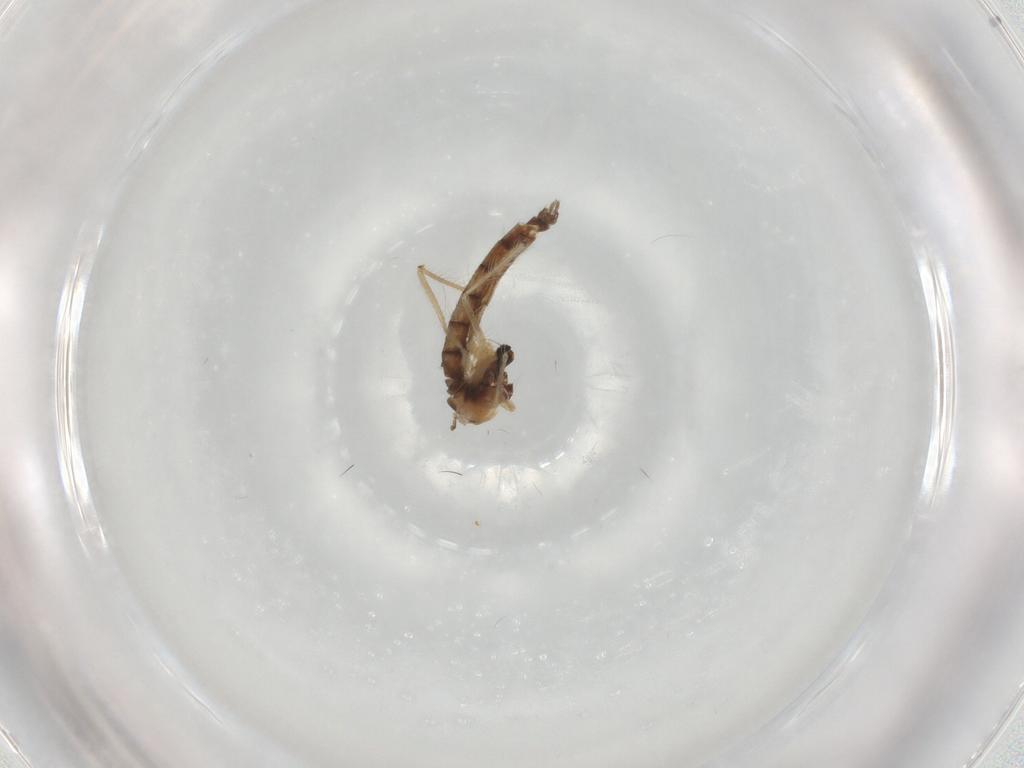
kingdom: Animalia
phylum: Arthropoda
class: Insecta
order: Diptera
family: Chironomidae
